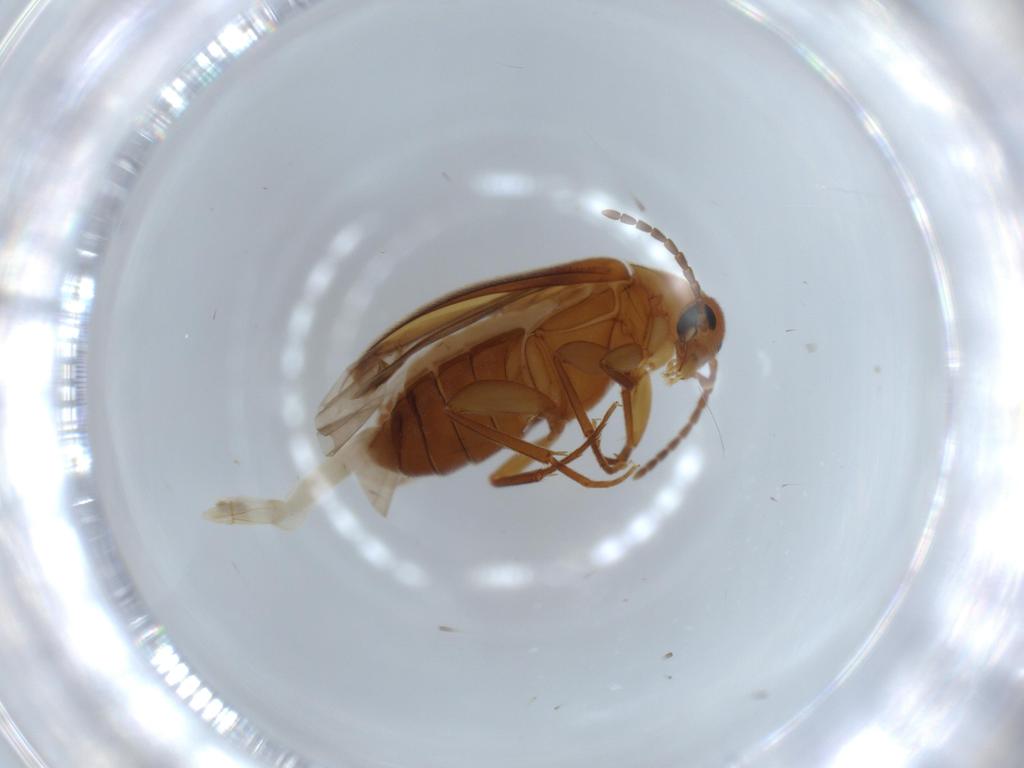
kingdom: Animalia
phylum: Arthropoda
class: Insecta
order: Coleoptera
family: Scraptiidae
